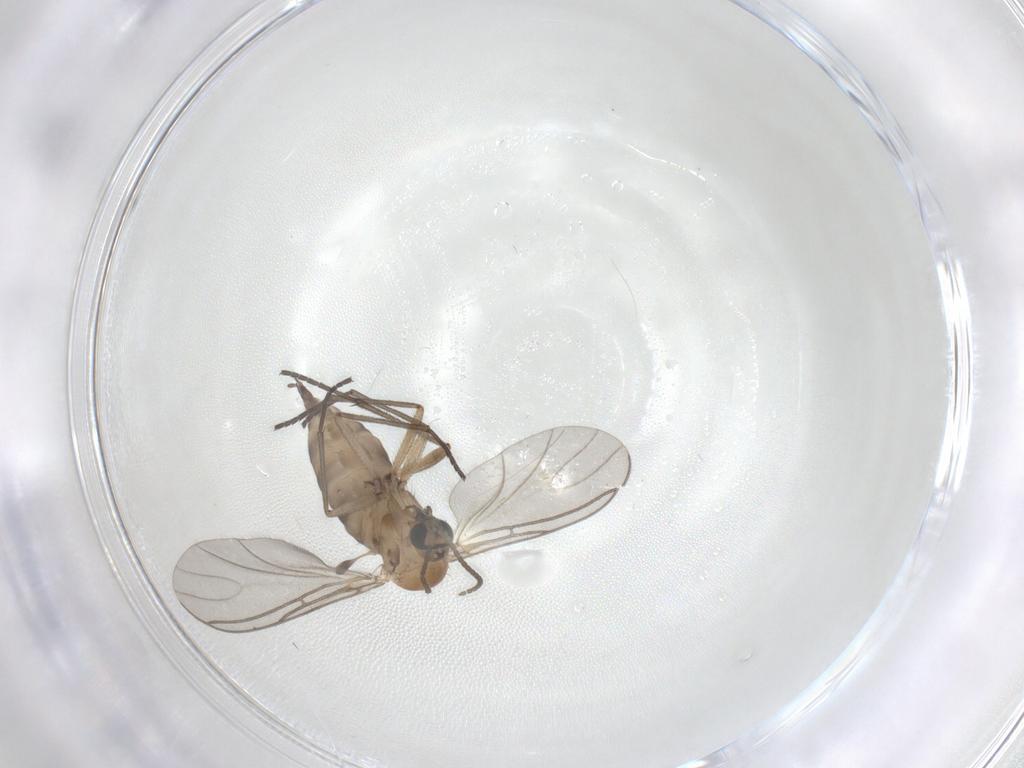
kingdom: Animalia
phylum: Arthropoda
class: Insecta
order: Diptera
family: Sciaridae
